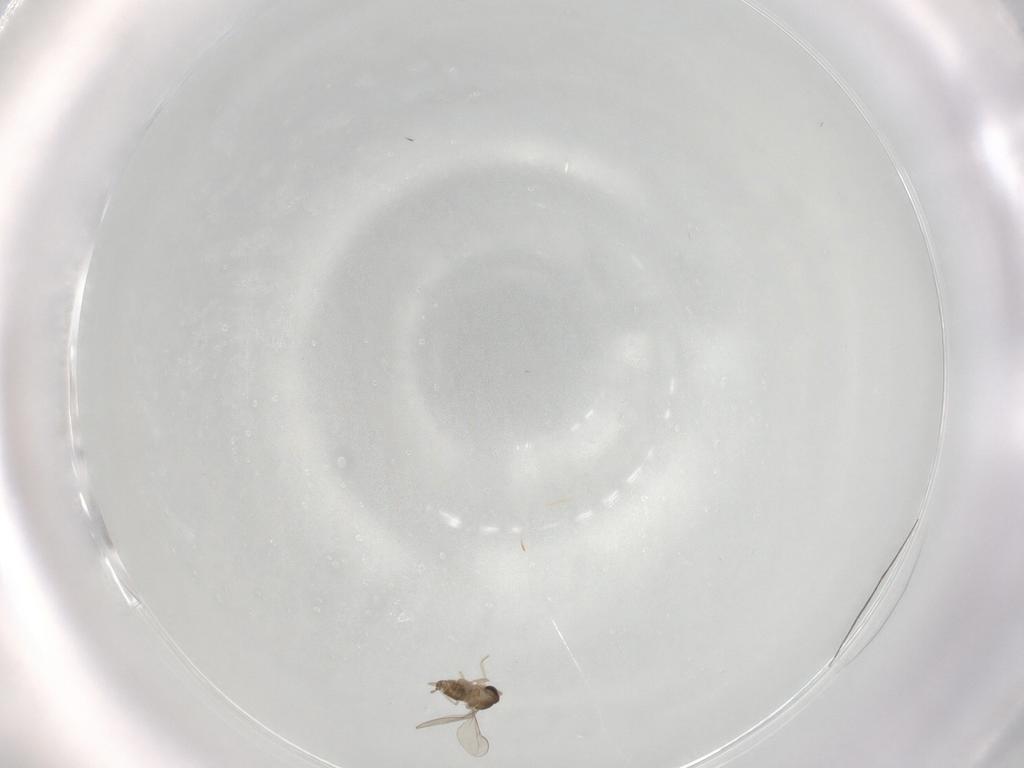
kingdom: Animalia
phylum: Arthropoda
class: Insecta
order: Diptera
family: Cecidomyiidae
